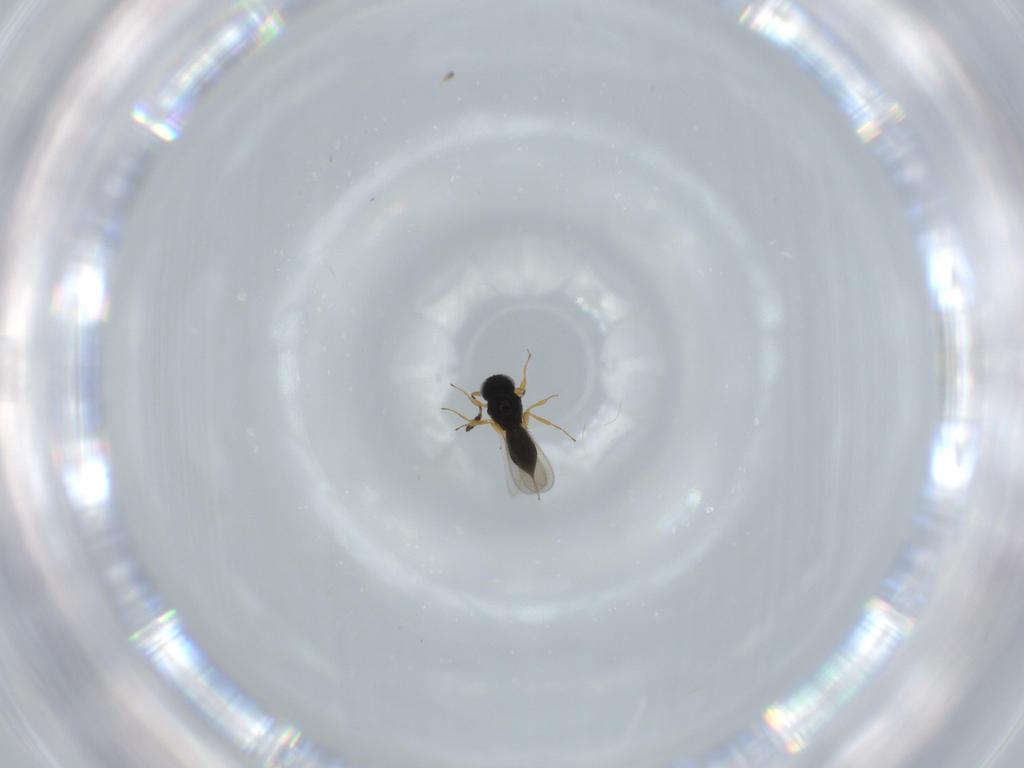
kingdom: Animalia
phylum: Arthropoda
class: Insecta
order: Hymenoptera
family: Scelionidae
